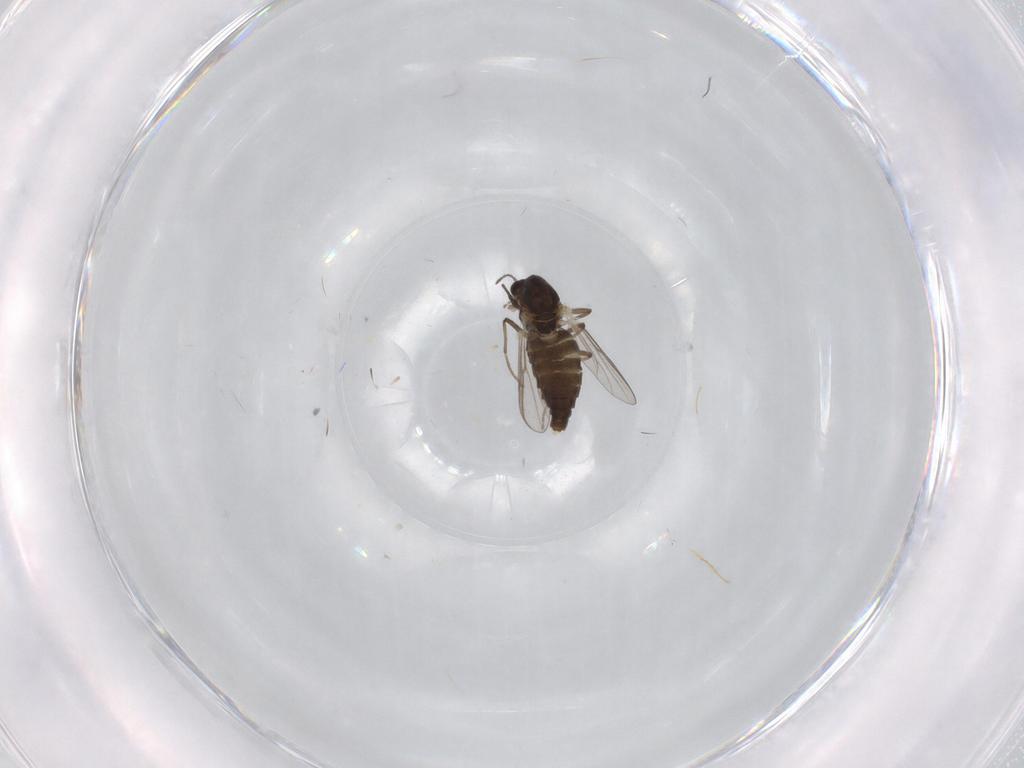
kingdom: Animalia
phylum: Arthropoda
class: Insecta
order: Diptera
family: Chironomidae
